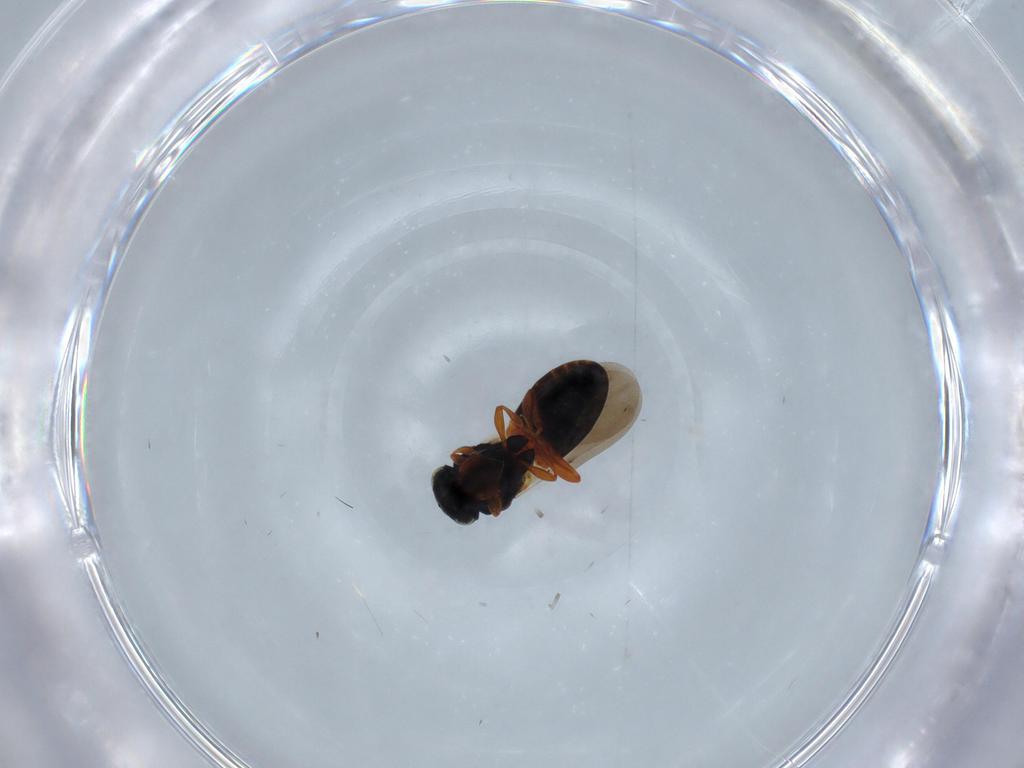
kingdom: Animalia
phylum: Arthropoda
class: Insecta
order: Hymenoptera
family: Platygastridae
